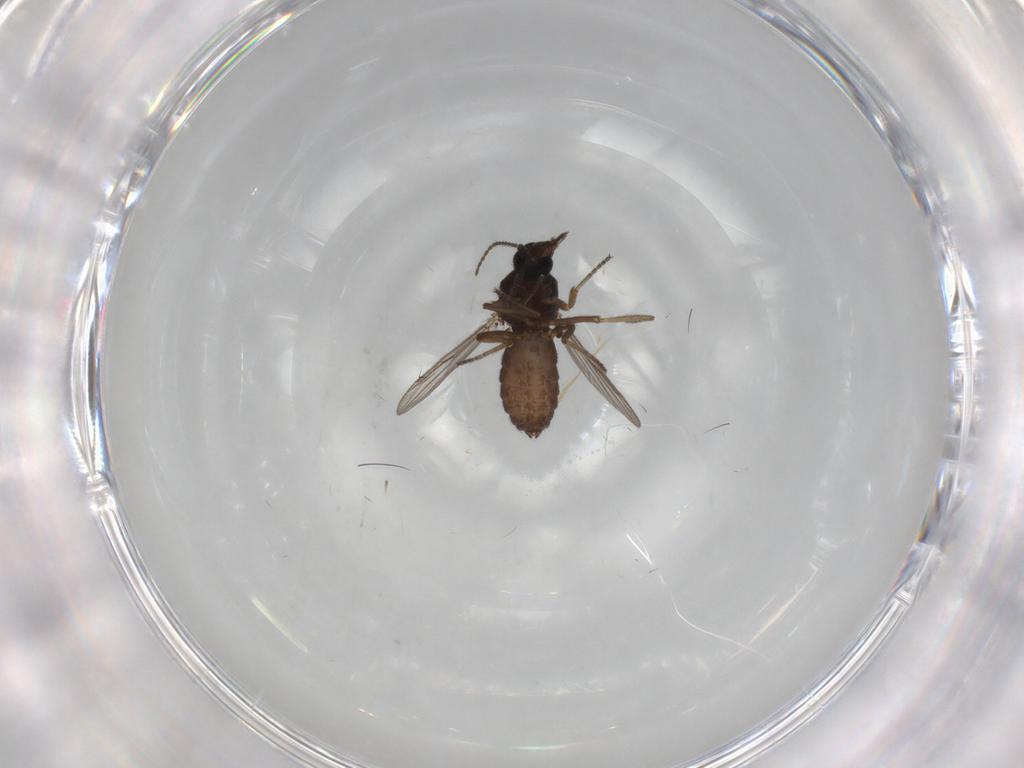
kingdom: Animalia
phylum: Arthropoda
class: Insecta
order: Diptera
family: Ceratopogonidae
